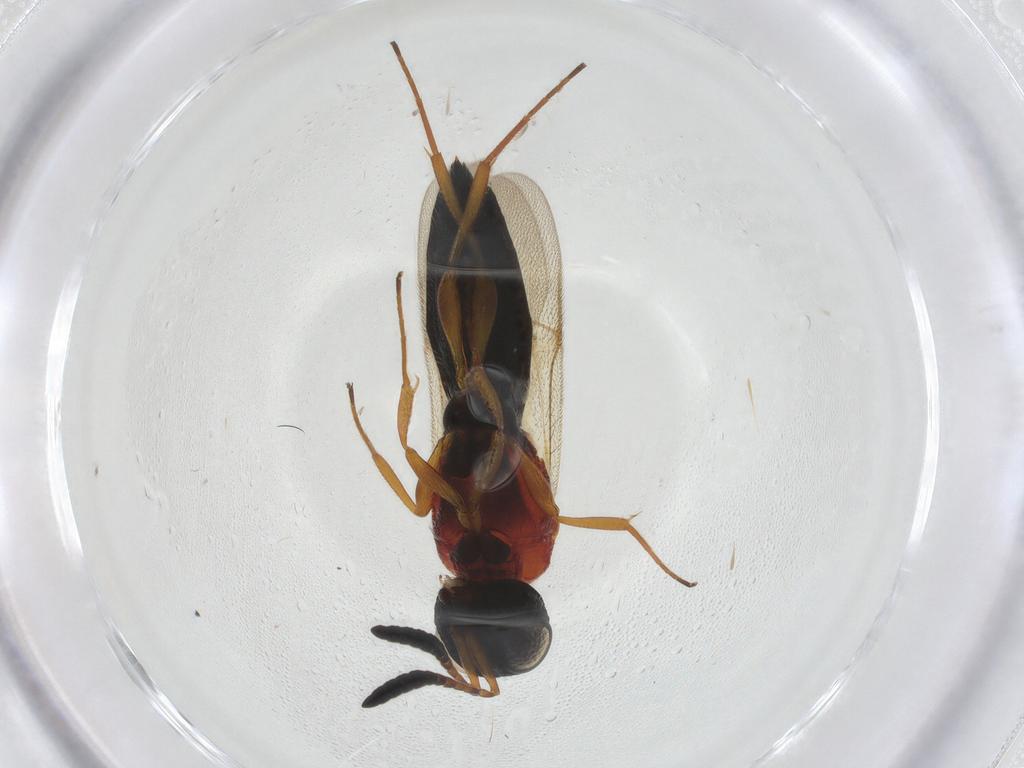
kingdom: Animalia
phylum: Arthropoda
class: Insecta
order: Hymenoptera
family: Scelionidae
